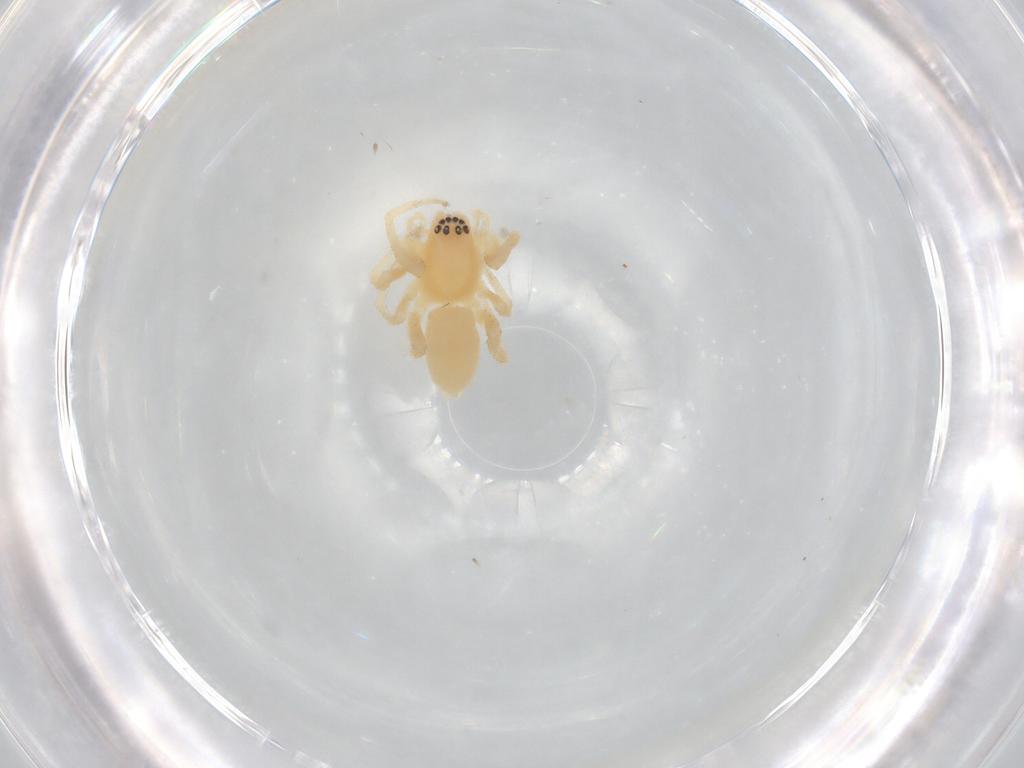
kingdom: Animalia
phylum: Arthropoda
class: Arachnida
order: Araneae
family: Anyphaenidae
